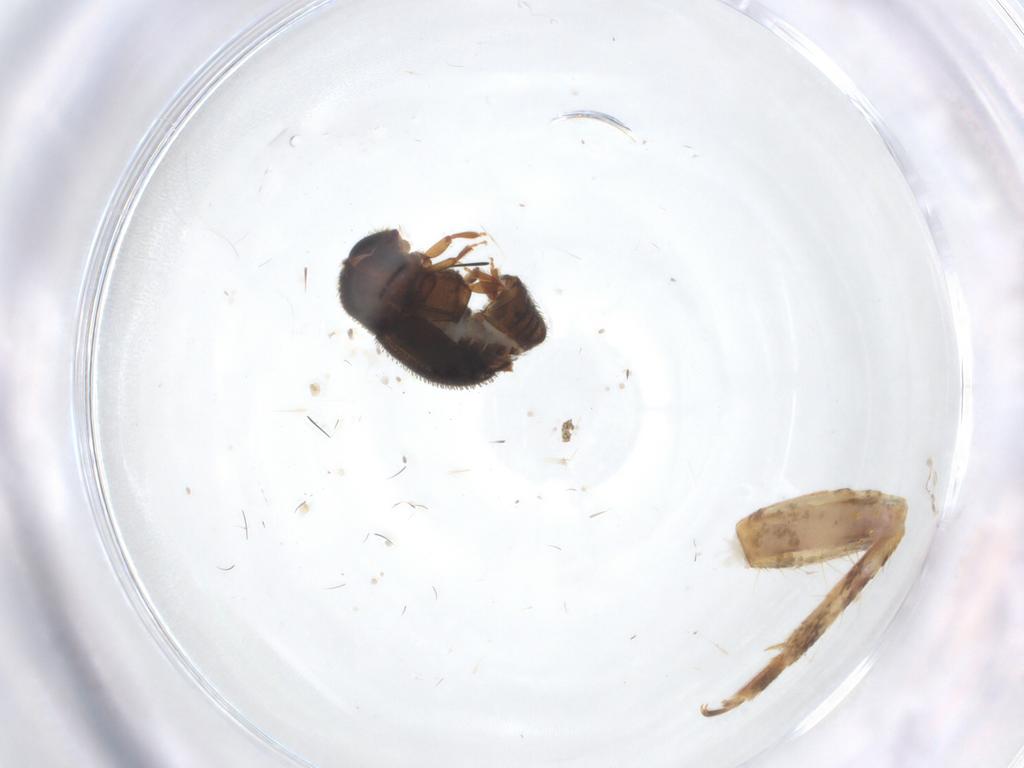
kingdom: Animalia
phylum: Arthropoda
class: Insecta
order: Coleoptera
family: Curculionidae
